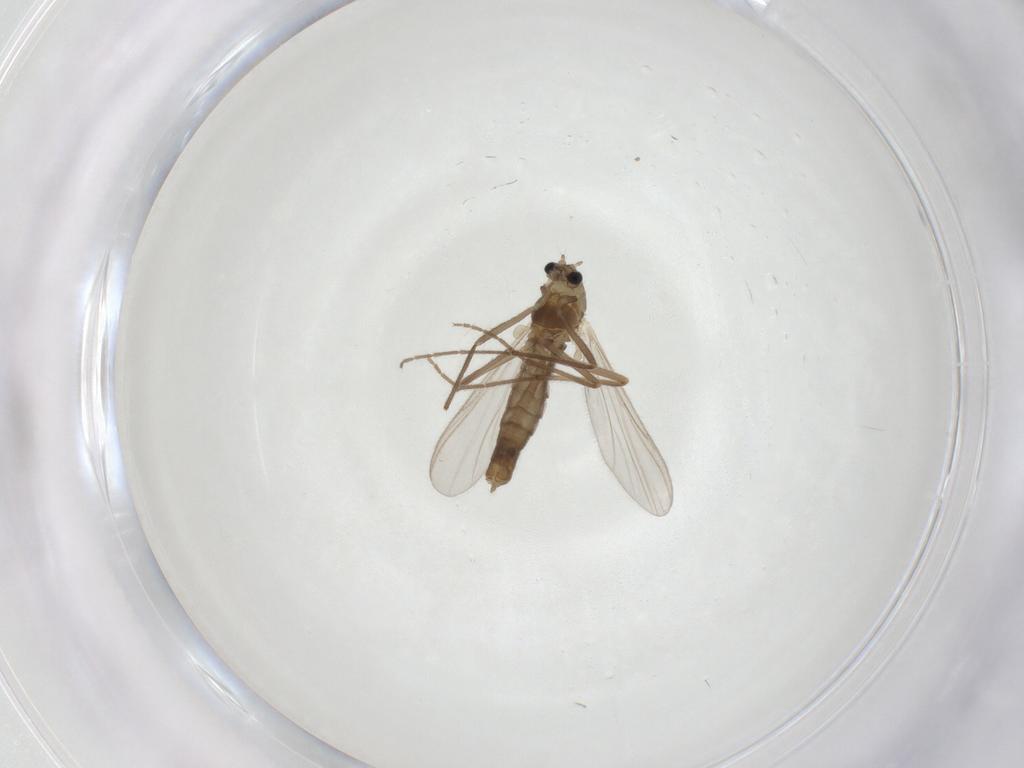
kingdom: Animalia
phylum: Arthropoda
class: Insecta
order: Diptera
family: Culicidae
